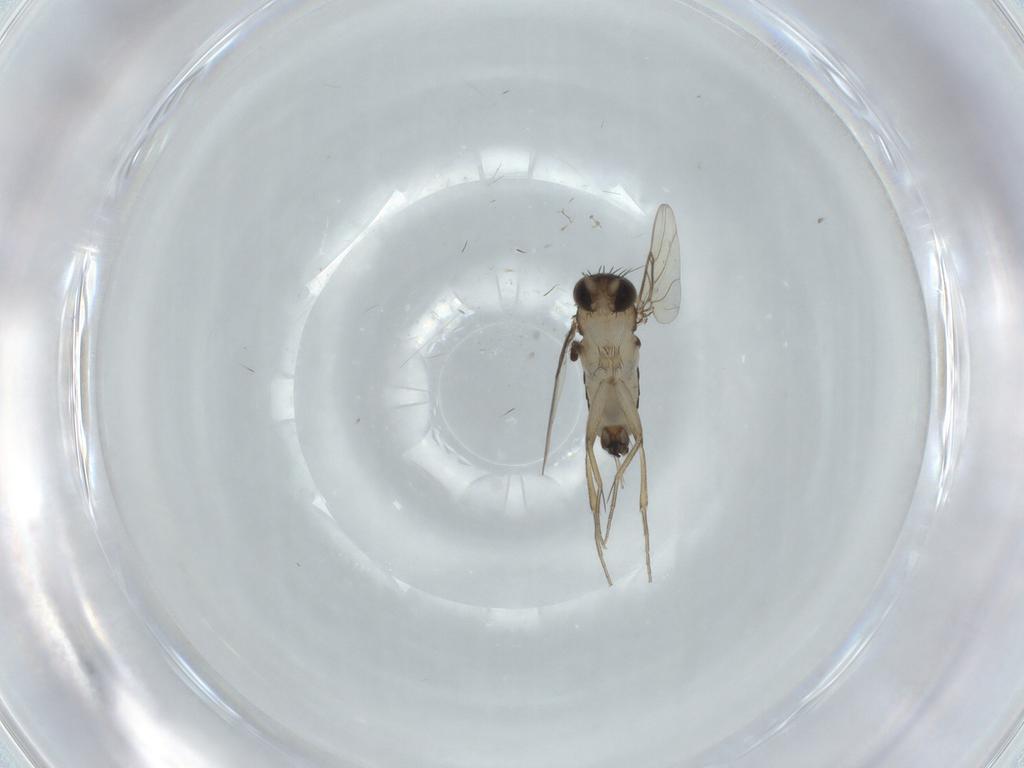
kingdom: Animalia
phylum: Arthropoda
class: Insecta
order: Diptera
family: Phoridae
